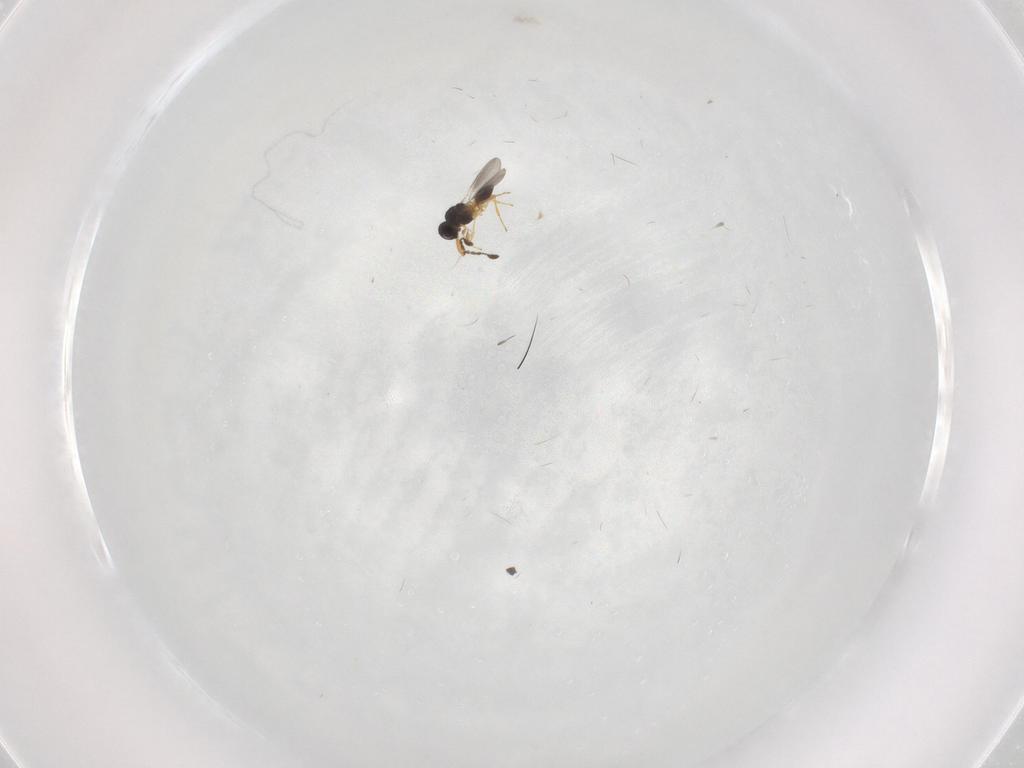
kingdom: Animalia
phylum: Arthropoda
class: Insecta
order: Hymenoptera
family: Platygastridae
